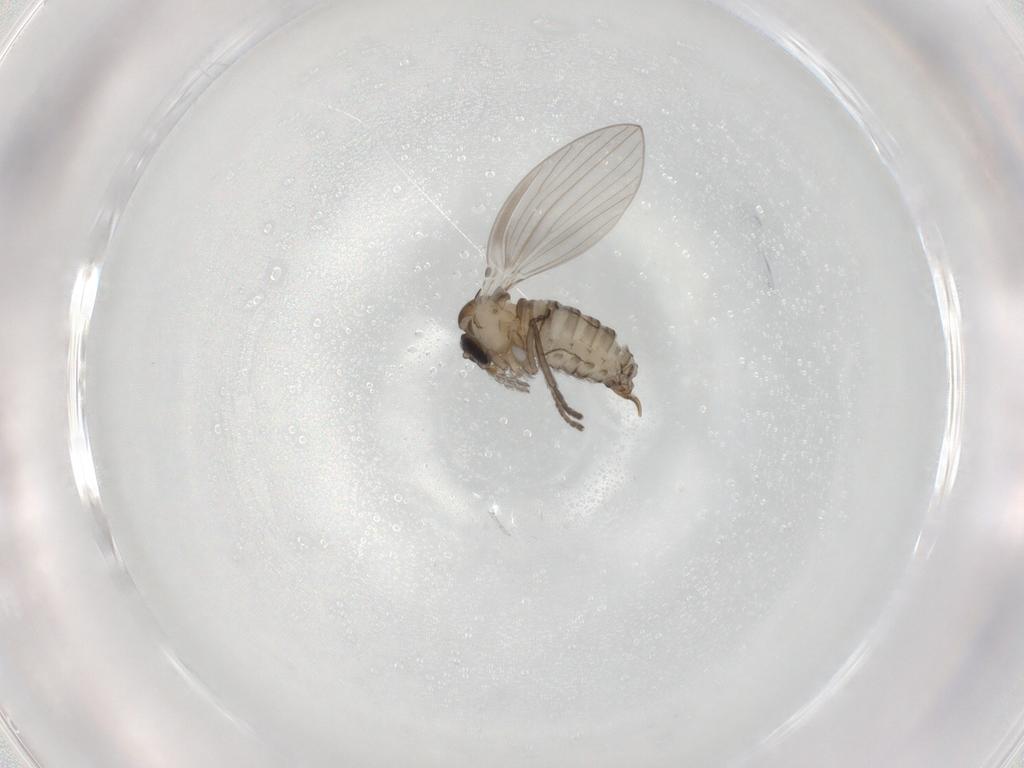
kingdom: Animalia
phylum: Arthropoda
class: Insecta
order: Diptera
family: Psychodidae
